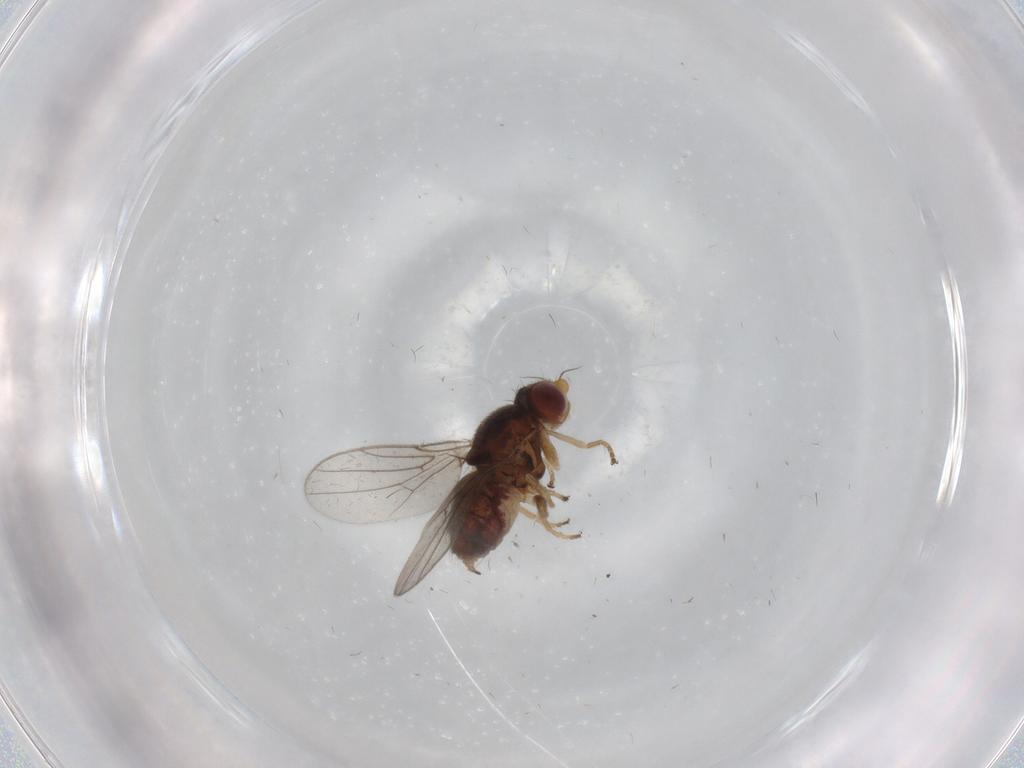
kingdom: Animalia
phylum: Arthropoda
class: Insecta
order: Diptera
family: Chloropidae
